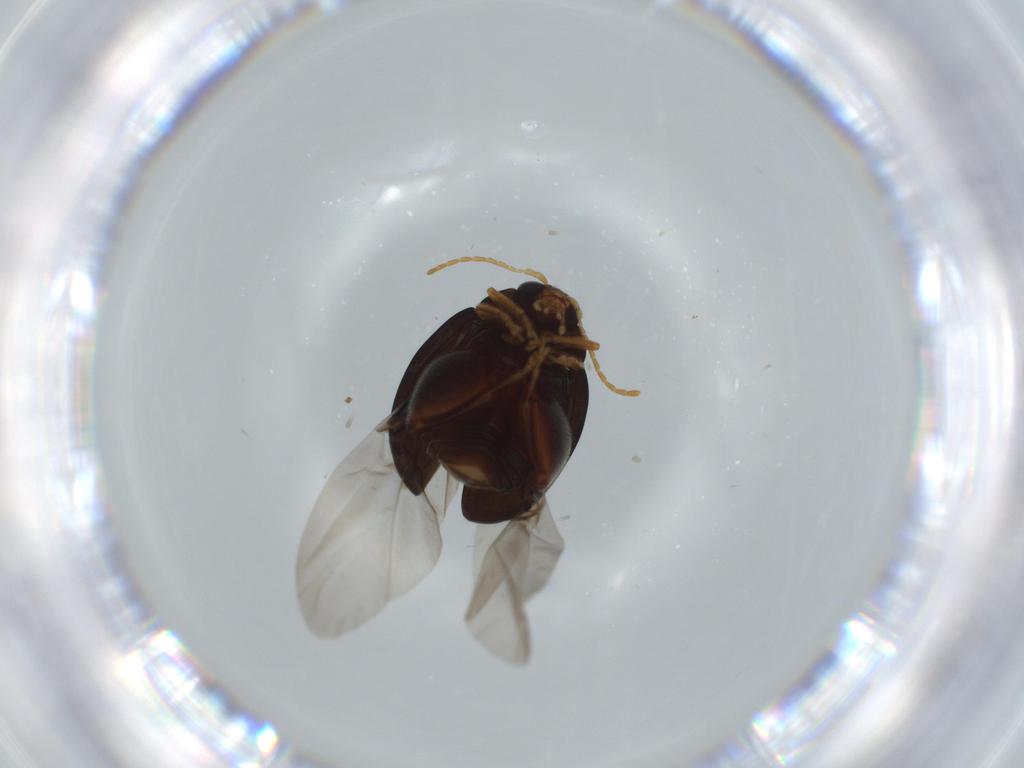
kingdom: Animalia
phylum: Arthropoda
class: Insecta
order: Coleoptera
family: Chrysomelidae
